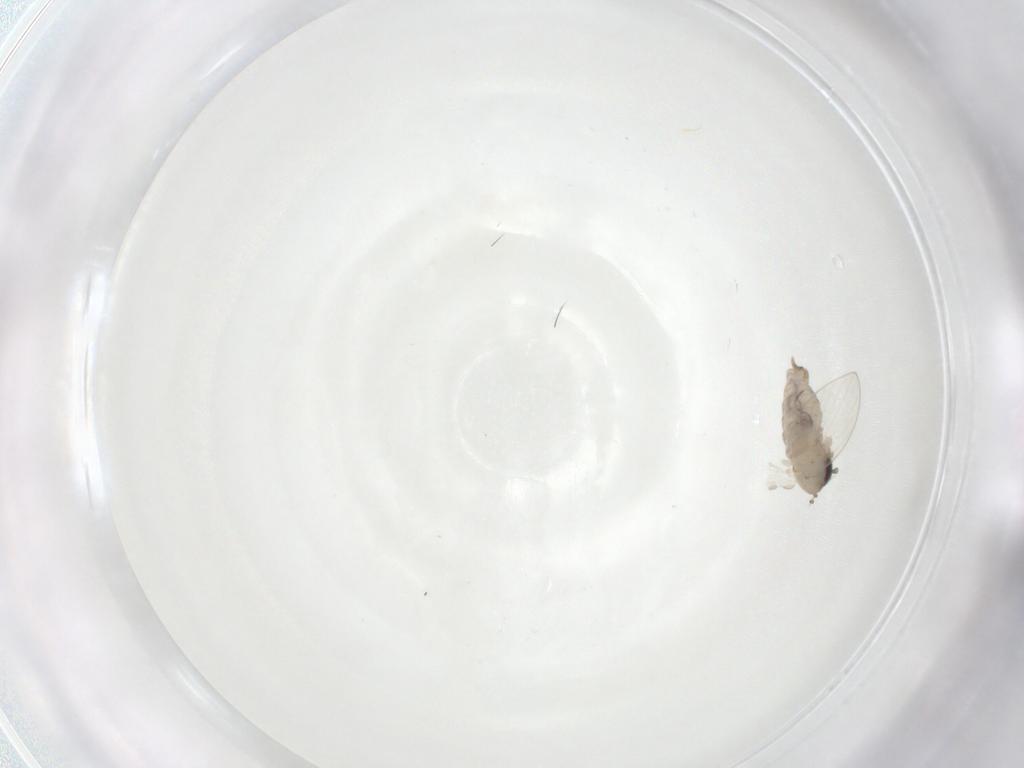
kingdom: Animalia
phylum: Arthropoda
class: Insecta
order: Diptera
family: Psychodidae
